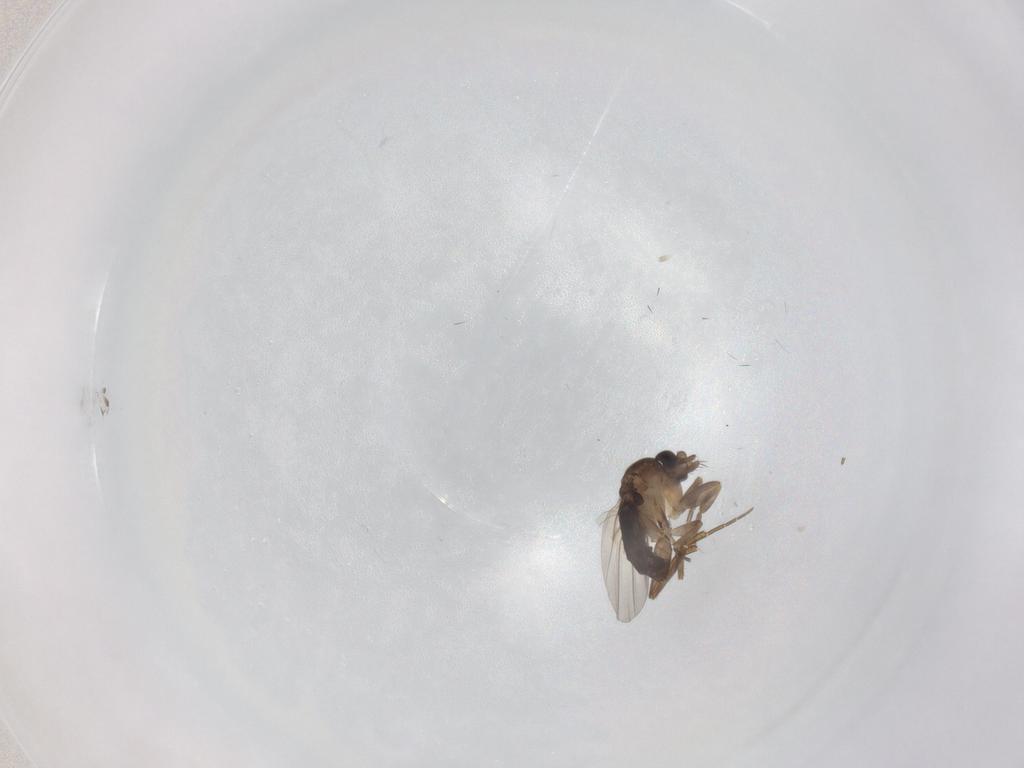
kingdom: Animalia
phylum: Arthropoda
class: Insecta
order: Diptera
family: Phoridae
